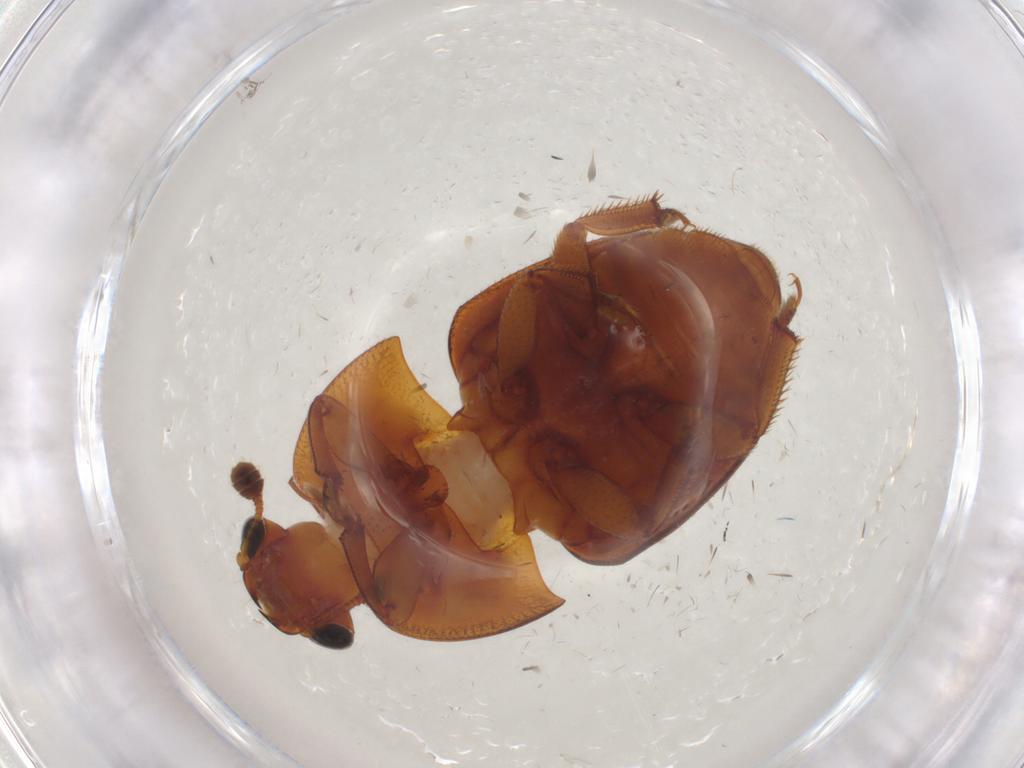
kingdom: Animalia
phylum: Arthropoda
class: Insecta
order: Coleoptera
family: Nitidulidae
